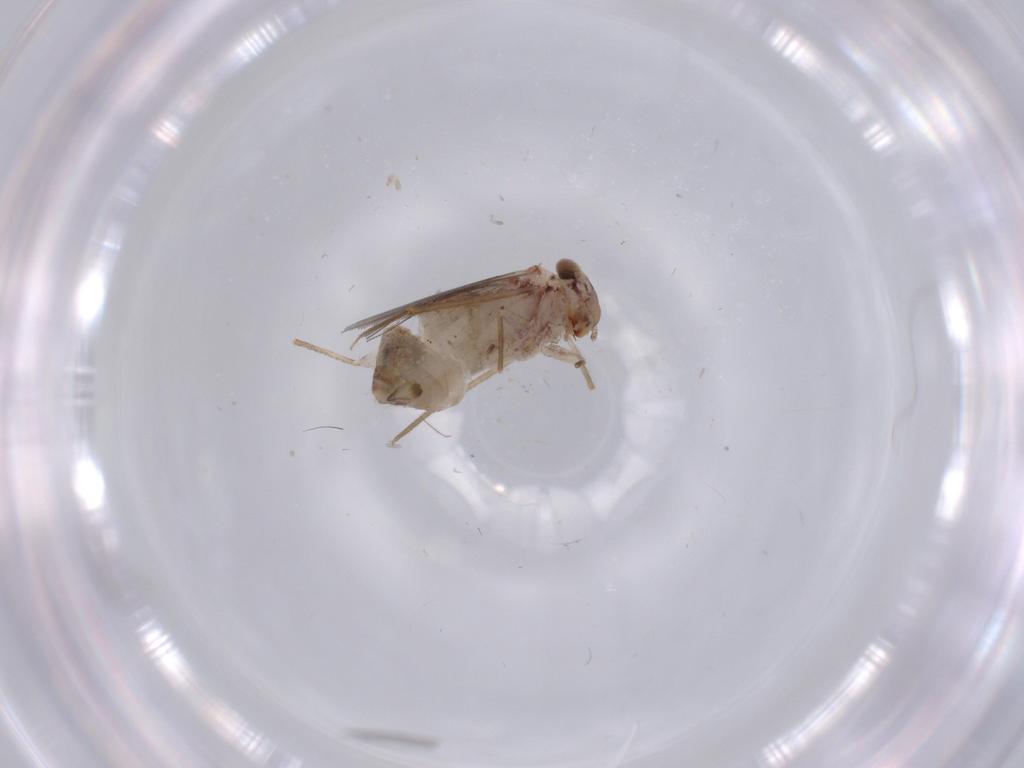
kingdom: Animalia
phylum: Arthropoda
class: Insecta
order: Psocodea
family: Lepidopsocidae
